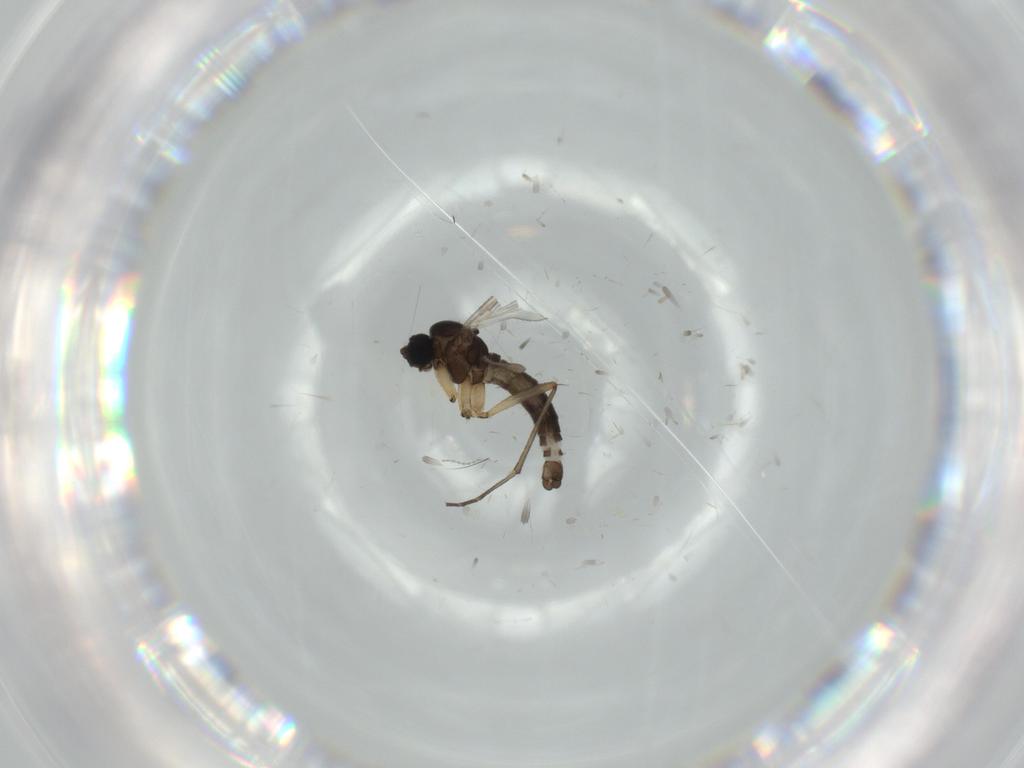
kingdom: Animalia
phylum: Arthropoda
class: Insecta
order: Diptera
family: Sciaridae
